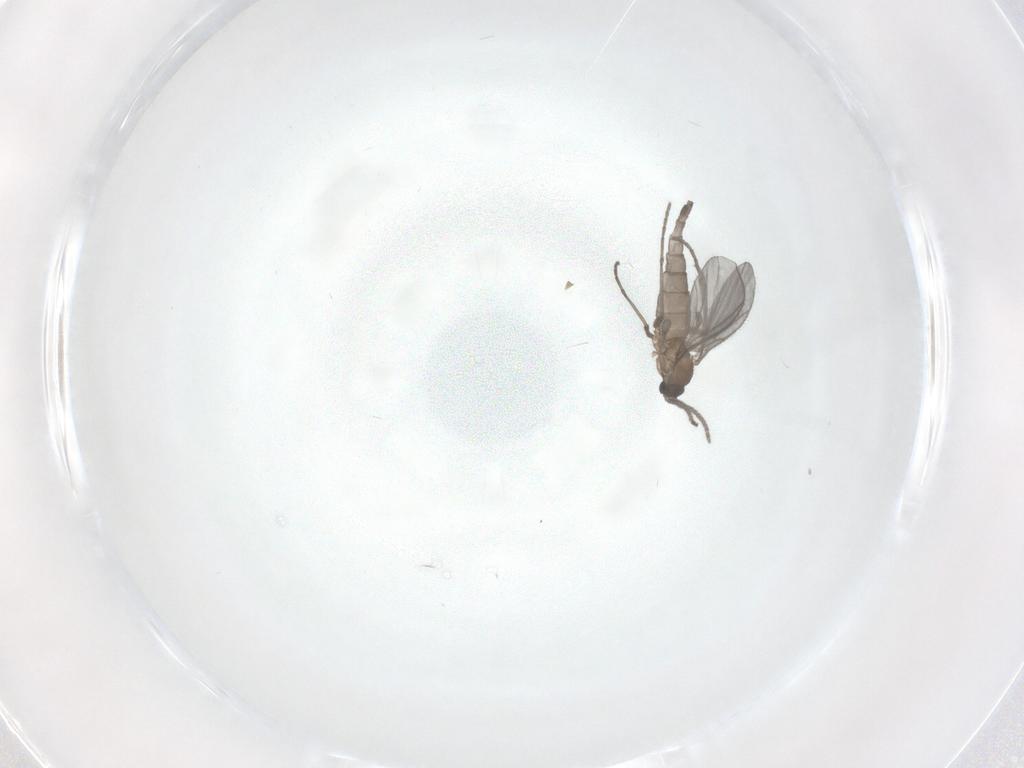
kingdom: Animalia
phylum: Arthropoda
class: Insecta
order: Diptera
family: Sciaridae
